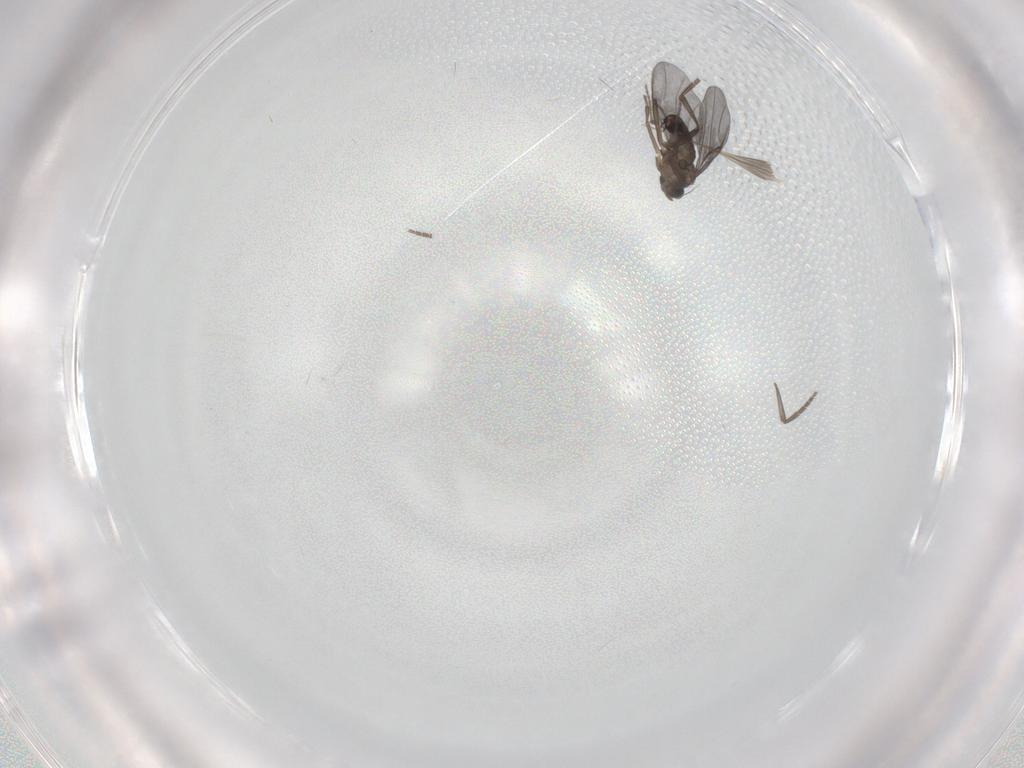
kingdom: Animalia
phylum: Arthropoda
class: Insecta
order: Diptera
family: Phoridae
